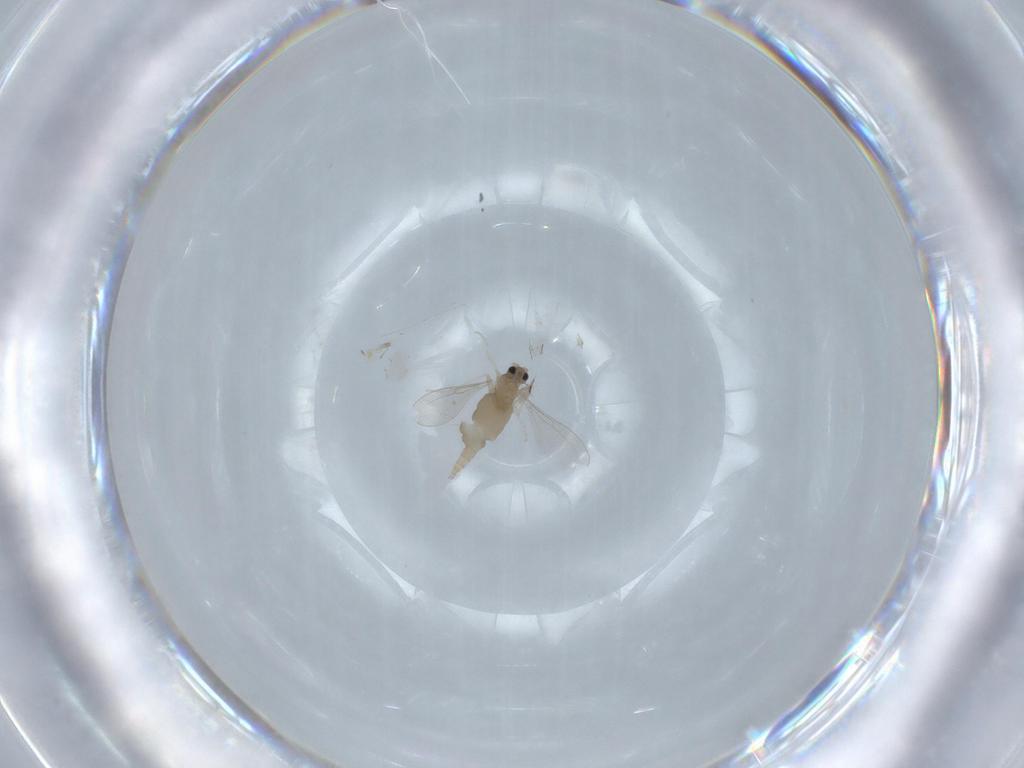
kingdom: Animalia
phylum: Arthropoda
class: Insecta
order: Diptera
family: Cecidomyiidae
